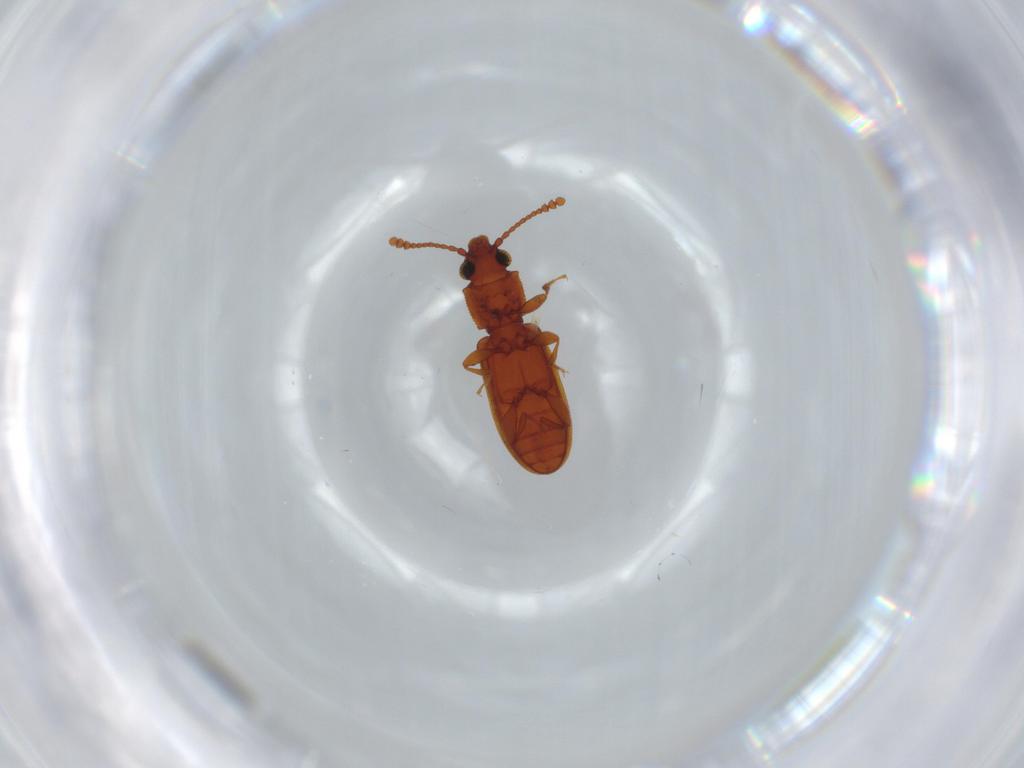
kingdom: Animalia
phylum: Arthropoda
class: Insecta
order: Coleoptera
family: Silvanidae
